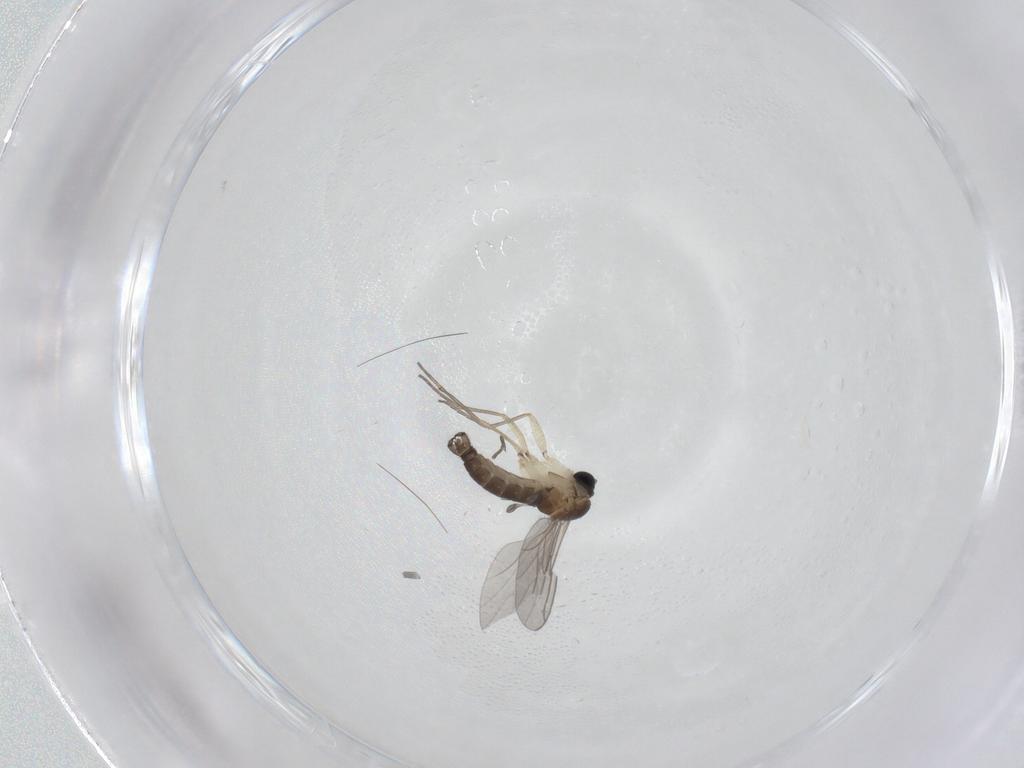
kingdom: Animalia
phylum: Arthropoda
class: Insecta
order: Diptera
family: Sciaridae
